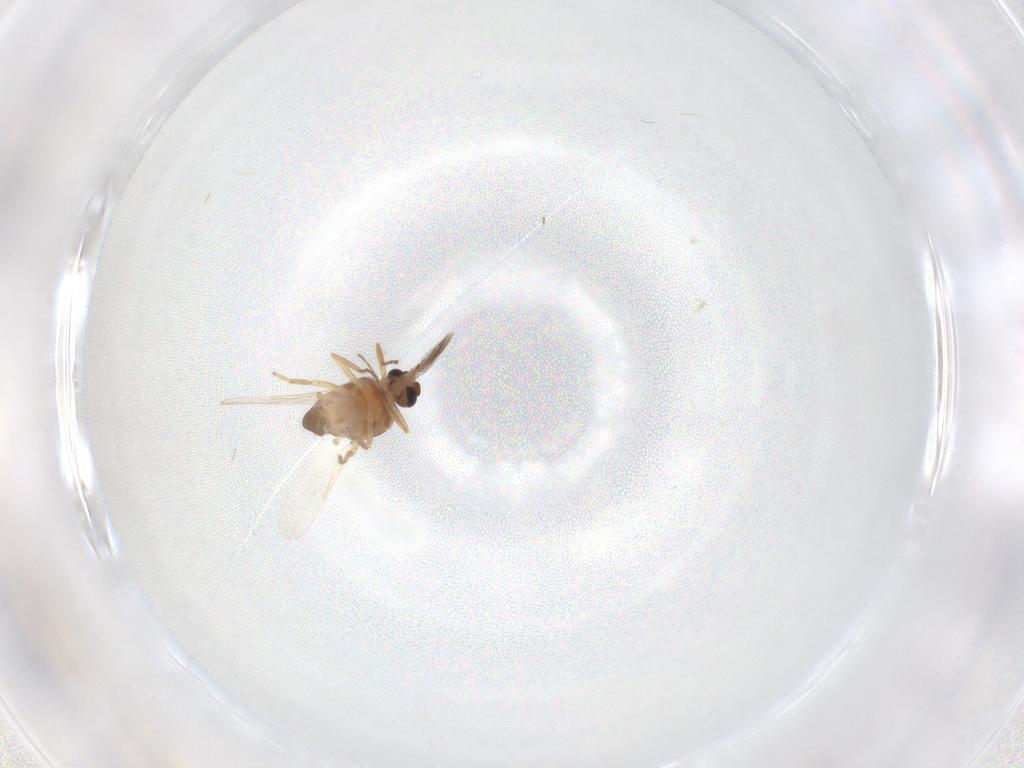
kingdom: Animalia
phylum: Arthropoda
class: Insecta
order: Diptera
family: Ceratopogonidae
